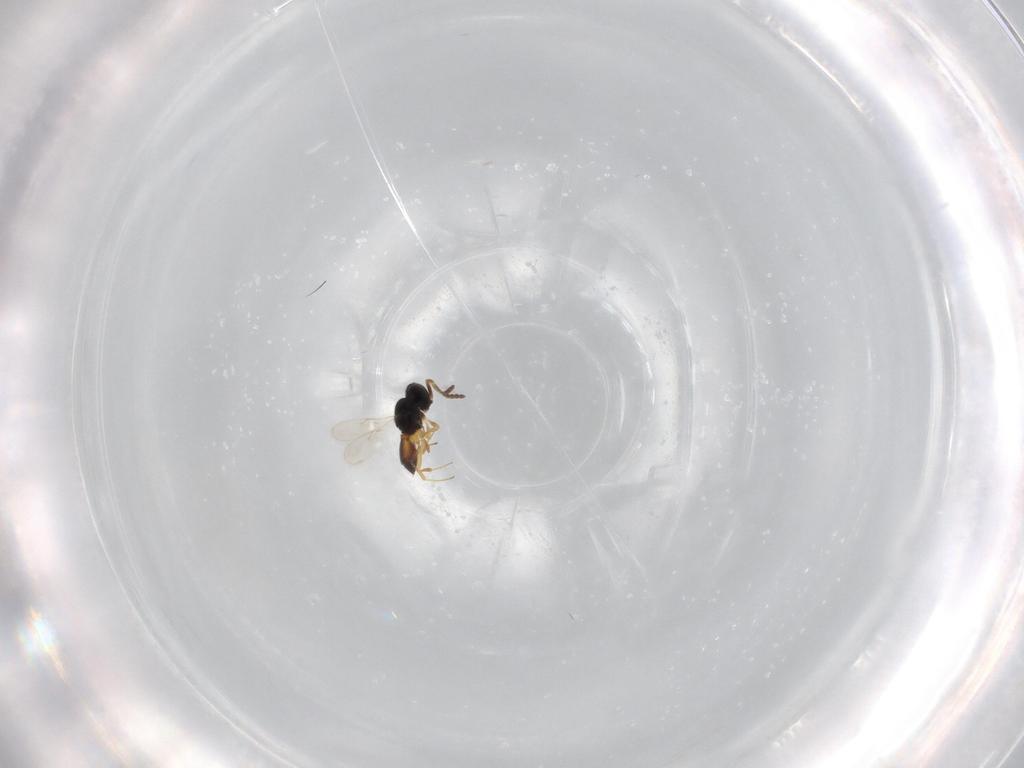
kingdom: Animalia
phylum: Arthropoda
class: Insecta
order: Hymenoptera
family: Scelionidae
